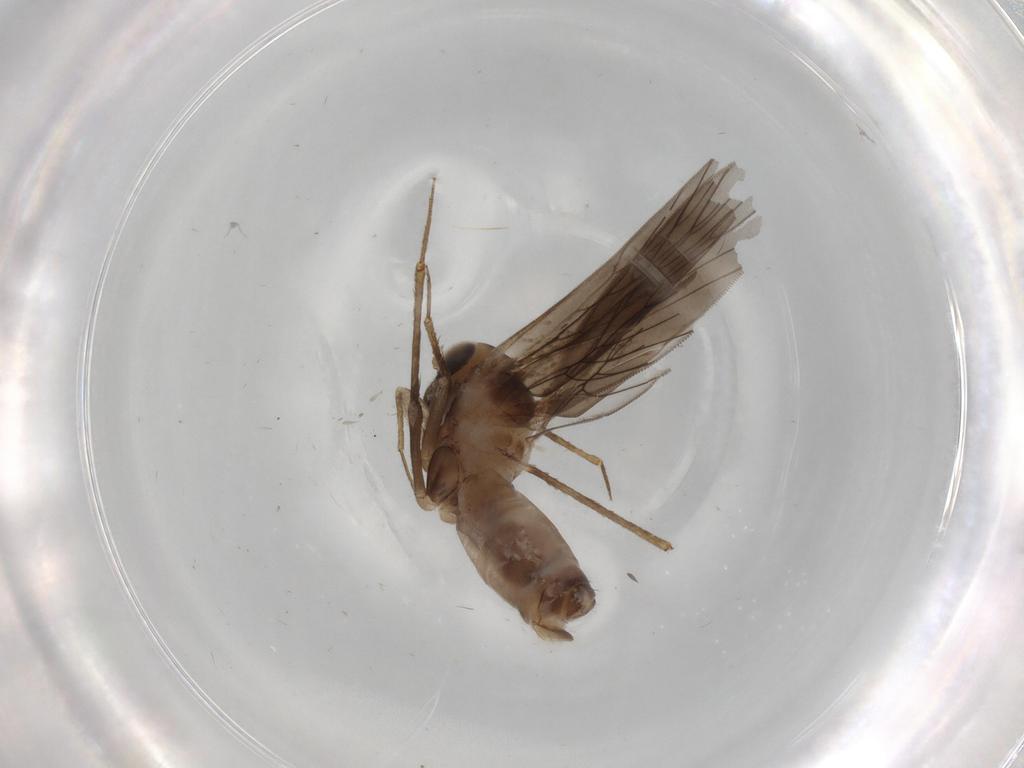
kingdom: Animalia
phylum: Arthropoda
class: Insecta
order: Psocodea
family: Lepidopsocidae
